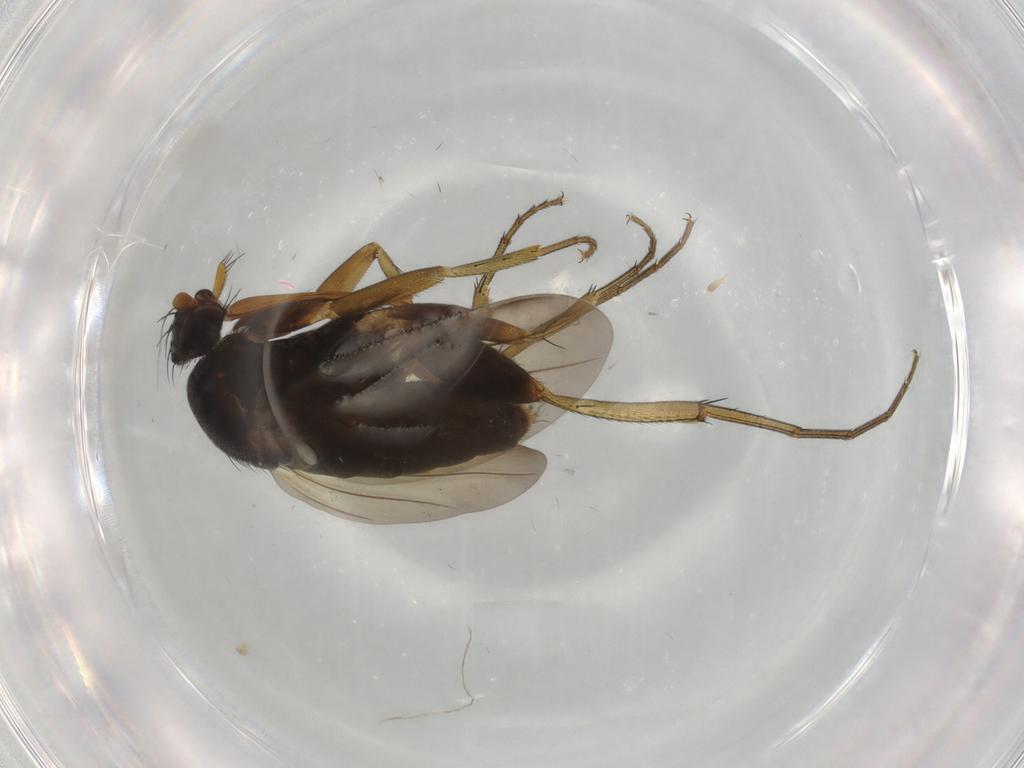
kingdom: Animalia
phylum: Arthropoda
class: Insecta
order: Diptera
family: Phoridae
